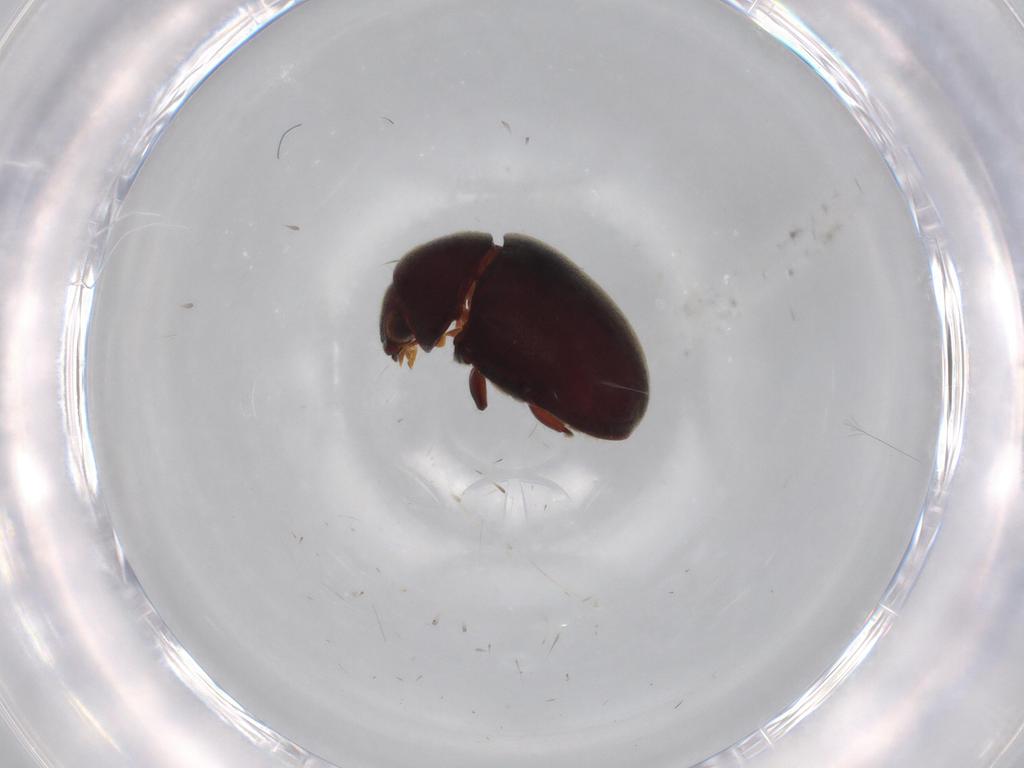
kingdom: Animalia
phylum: Arthropoda
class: Insecta
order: Coleoptera
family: Ptinidae
